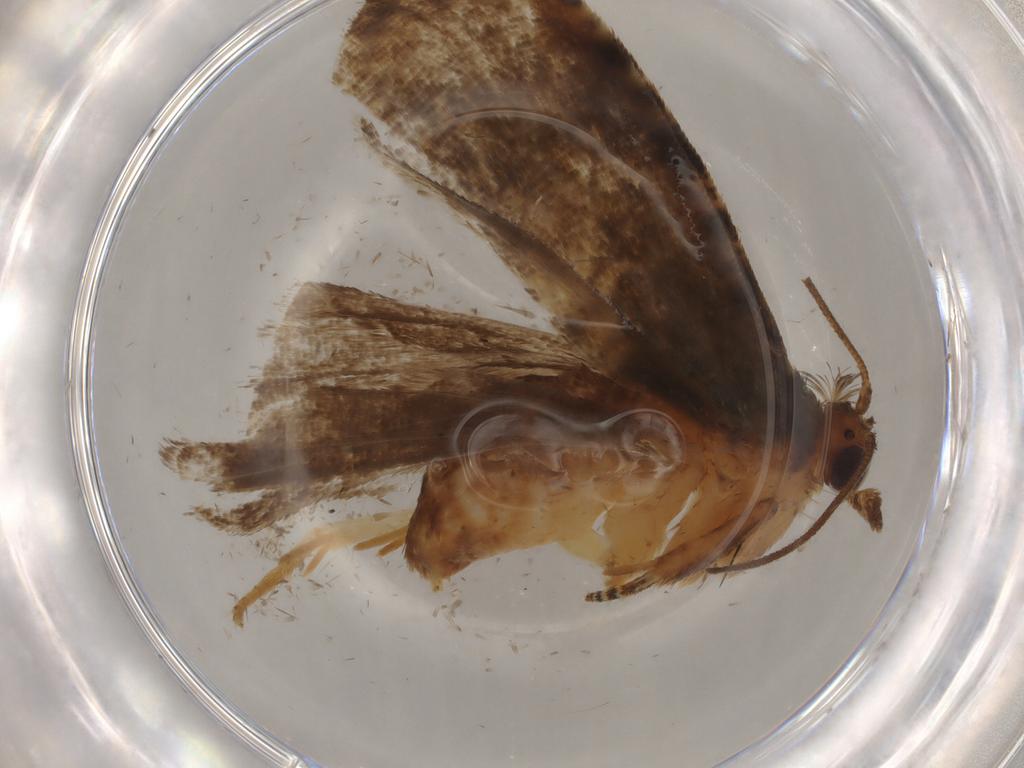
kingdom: Animalia
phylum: Arthropoda
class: Insecta
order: Lepidoptera
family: Tortricidae
